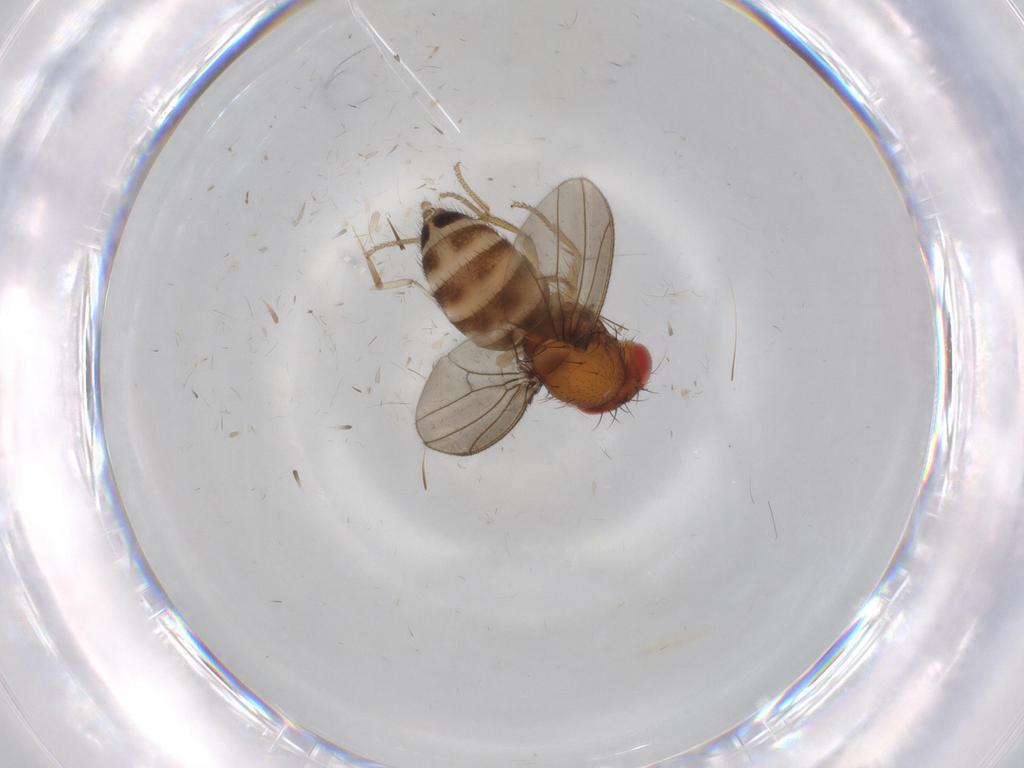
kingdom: Animalia
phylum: Arthropoda
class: Insecta
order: Diptera
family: Drosophilidae
